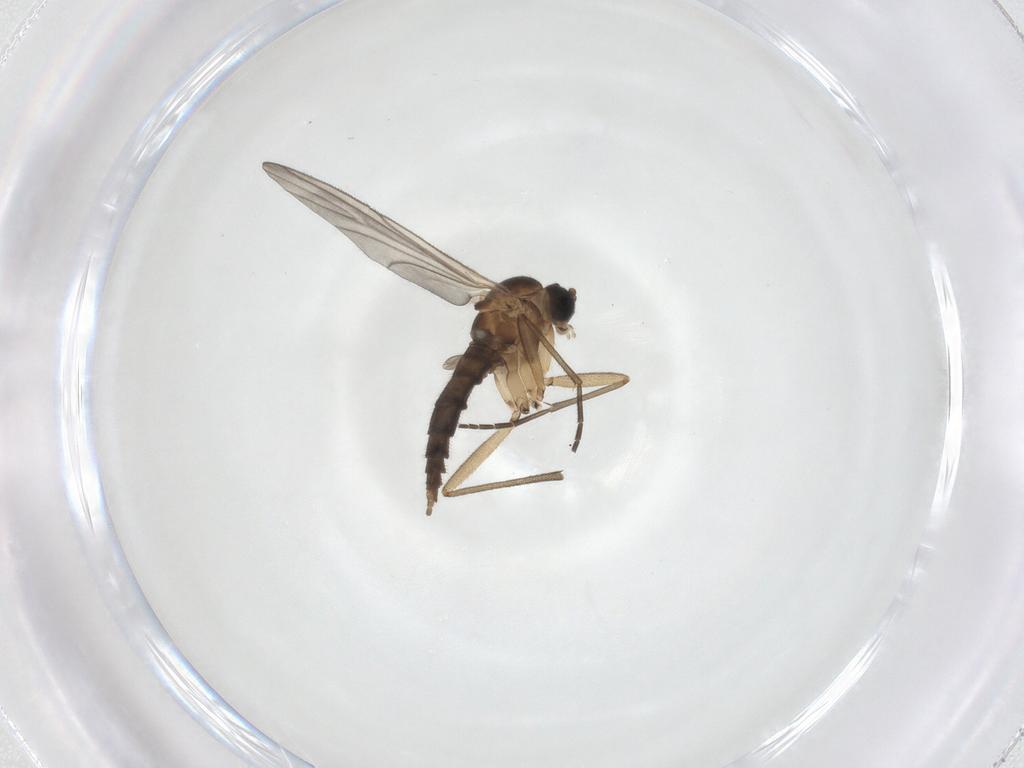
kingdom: Animalia
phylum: Arthropoda
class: Insecta
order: Diptera
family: Sciaridae
